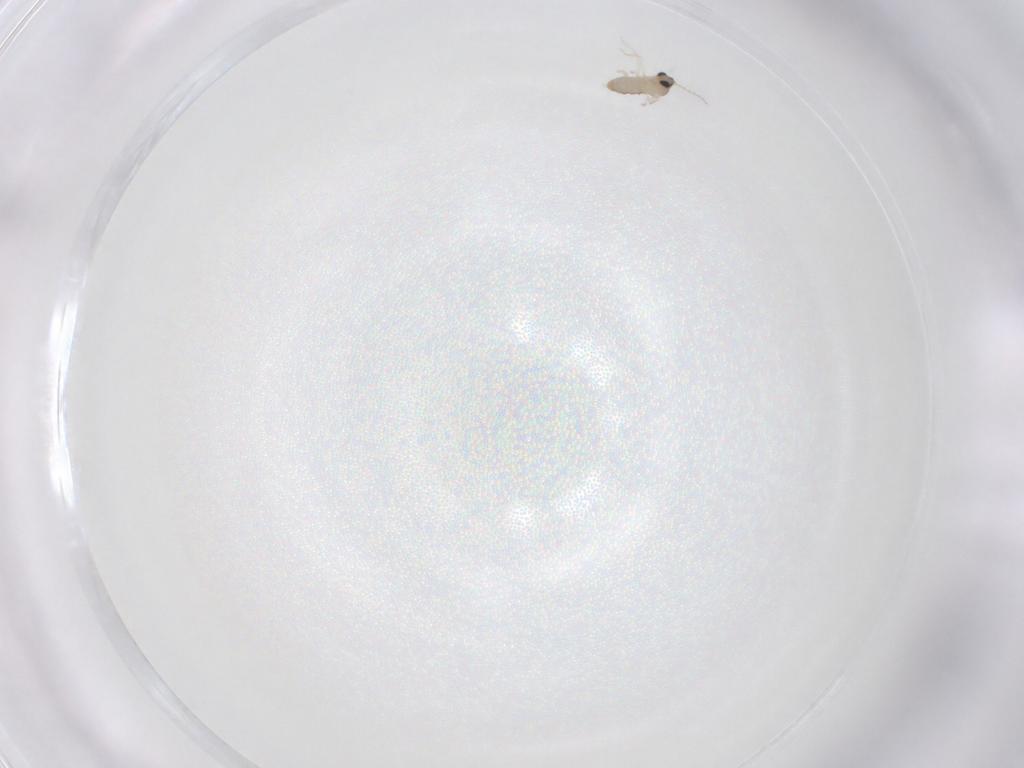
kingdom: Animalia
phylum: Arthropoda
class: Insecta
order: Diptera
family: Cecidomyiidae
